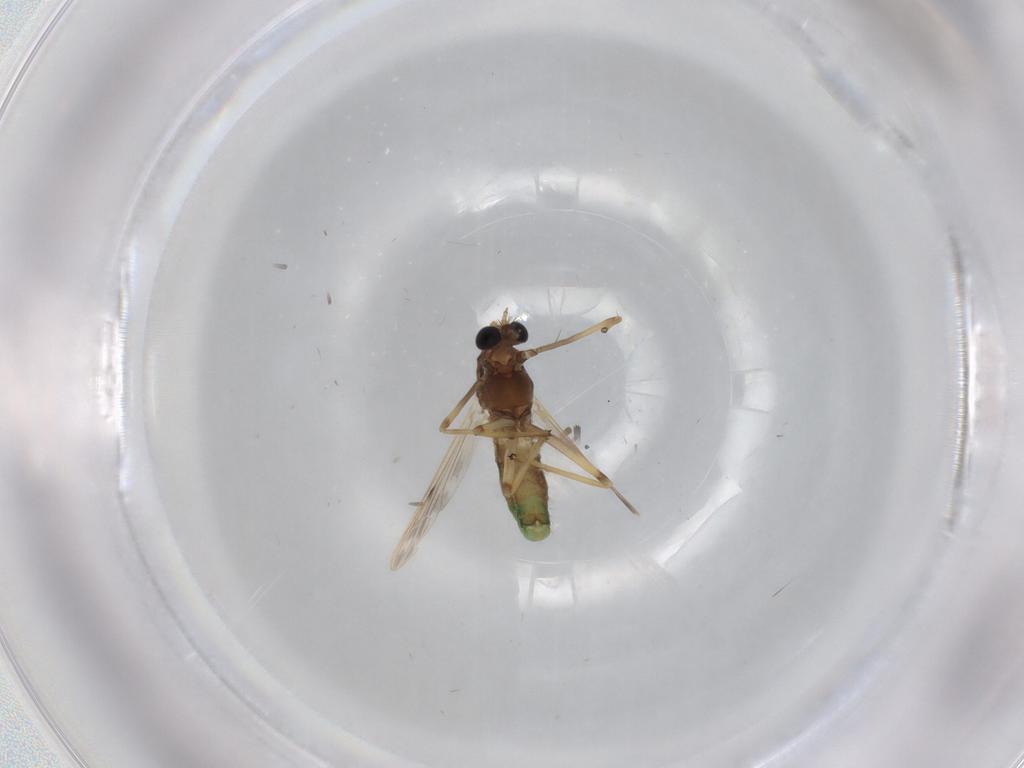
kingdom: Animalia
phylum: Arthropoda
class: Insecta
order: Diptera
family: Chironomidae
